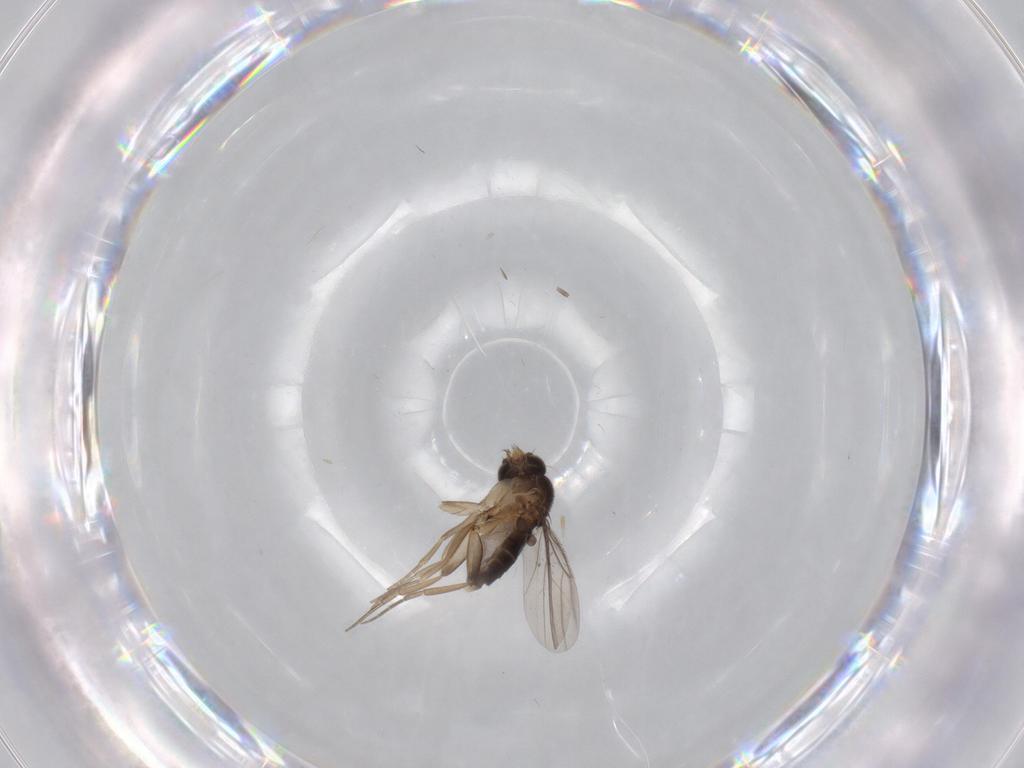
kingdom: Animalia
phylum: Arthropoda
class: Insecta
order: Diptera
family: Phoridae
